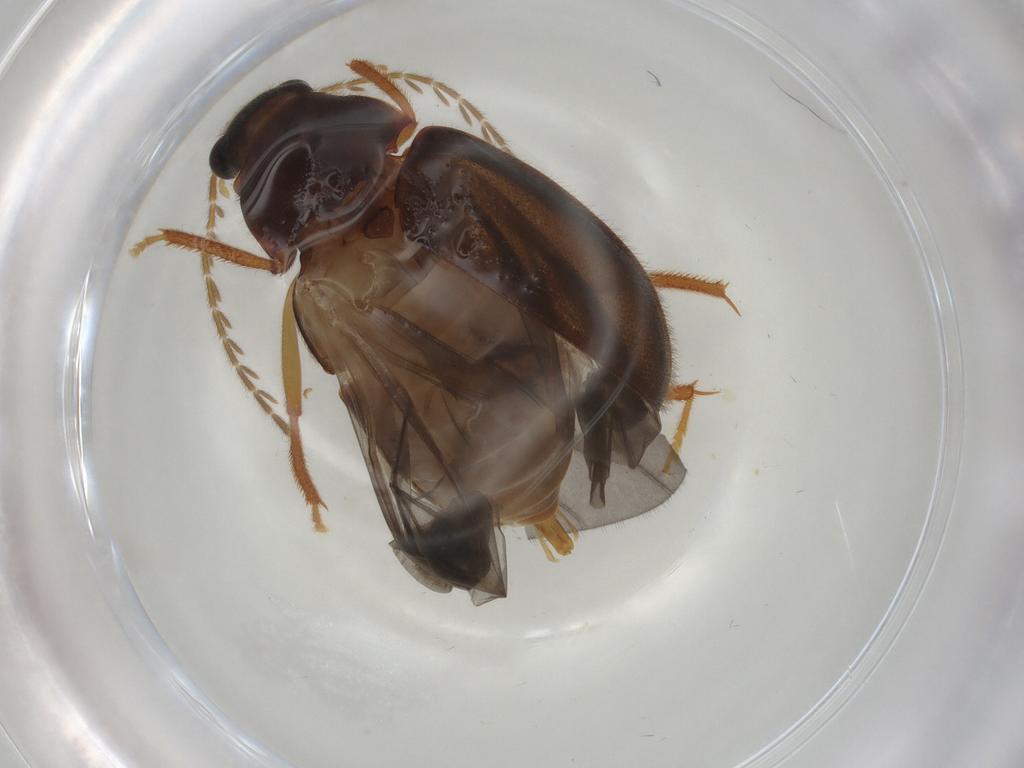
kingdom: Animalia
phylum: Arthropoda
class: Insecta
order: Coleoptera
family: Ptilodactylidae
